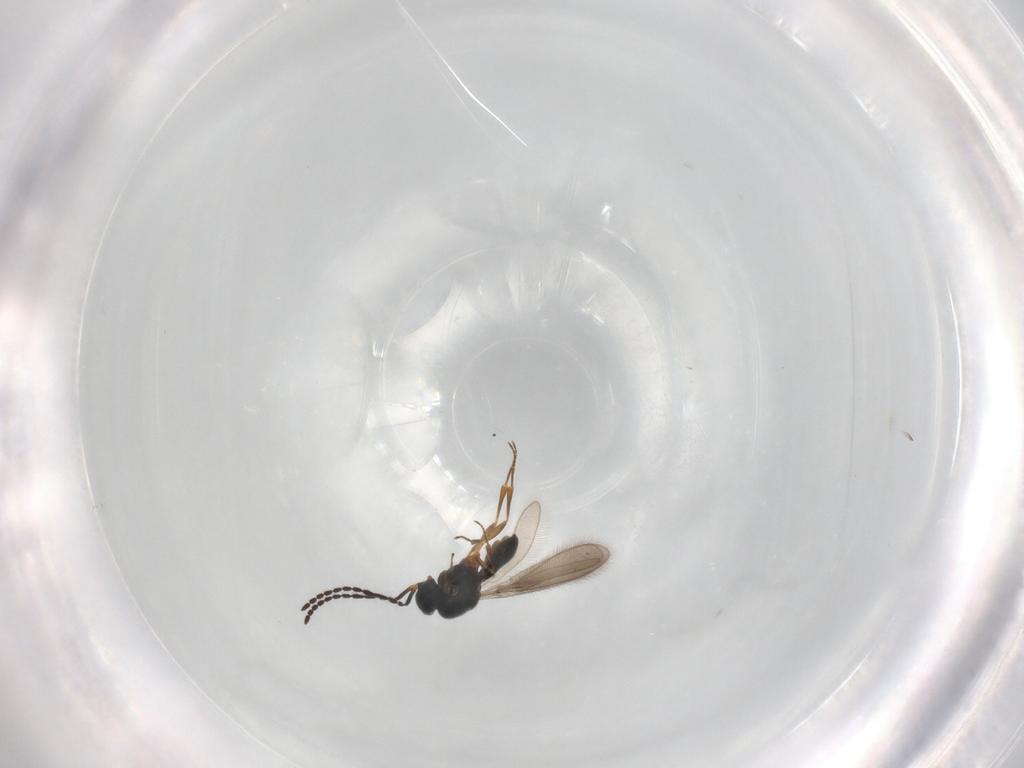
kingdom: Animalia
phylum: Arthropoda
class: Insecta
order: Hymenoptera
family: Scelionidae
